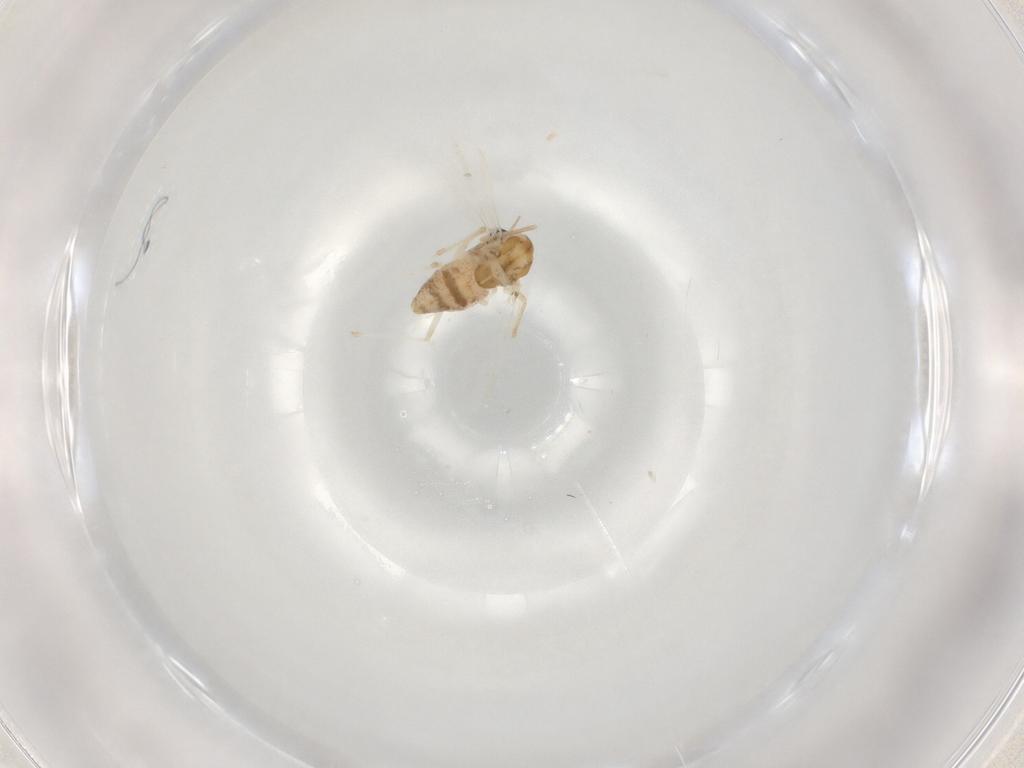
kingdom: Animalia
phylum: Arthropoda
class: Insecta
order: Diptera
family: Chironomidae
